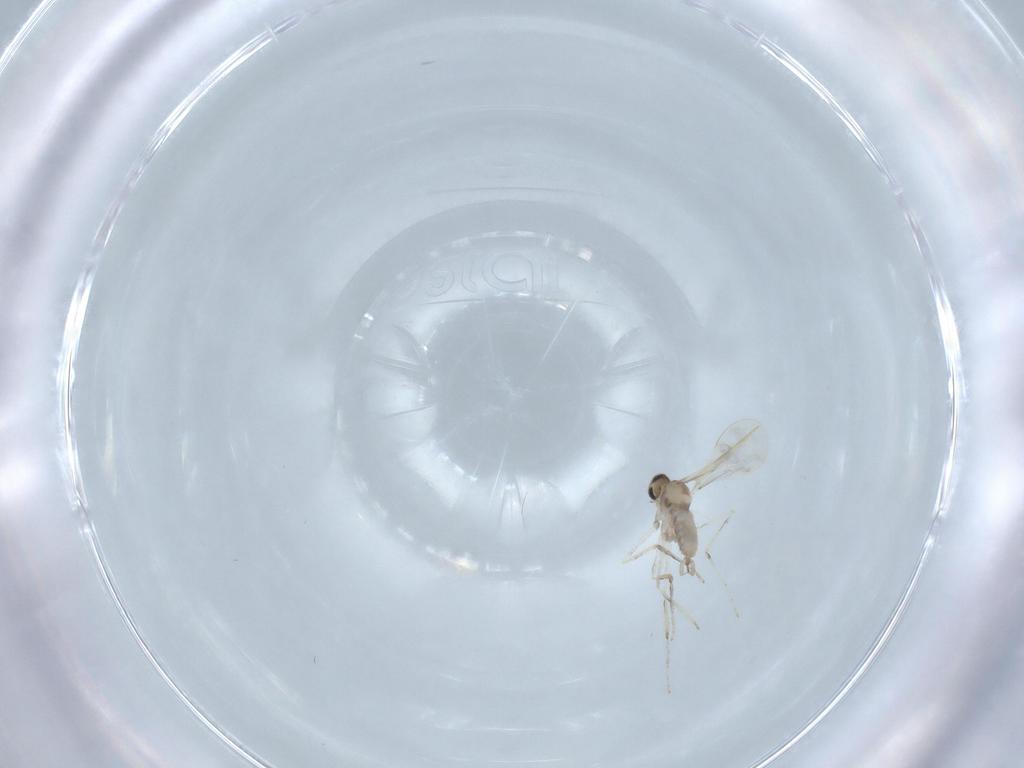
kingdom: Animalia
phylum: Arthropoda
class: Insecta
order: Diptera
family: Cecidomyiidae
